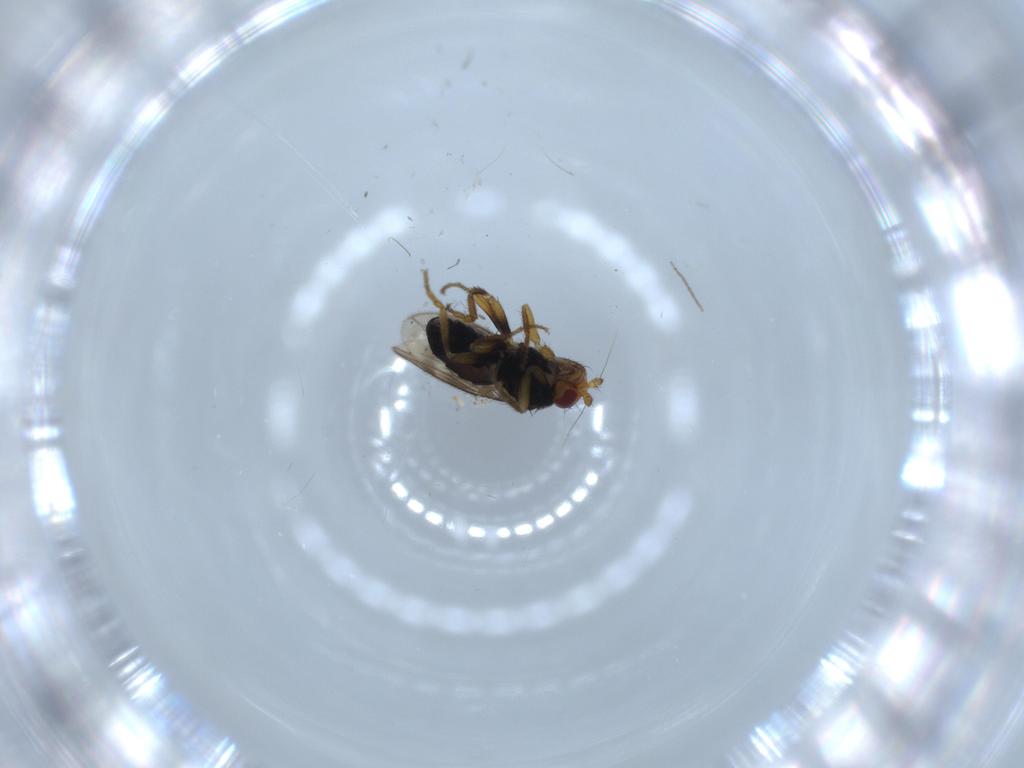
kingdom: Animalia
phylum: Arthropoda
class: Insecta
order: Diptera
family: Sphaeroceridae
